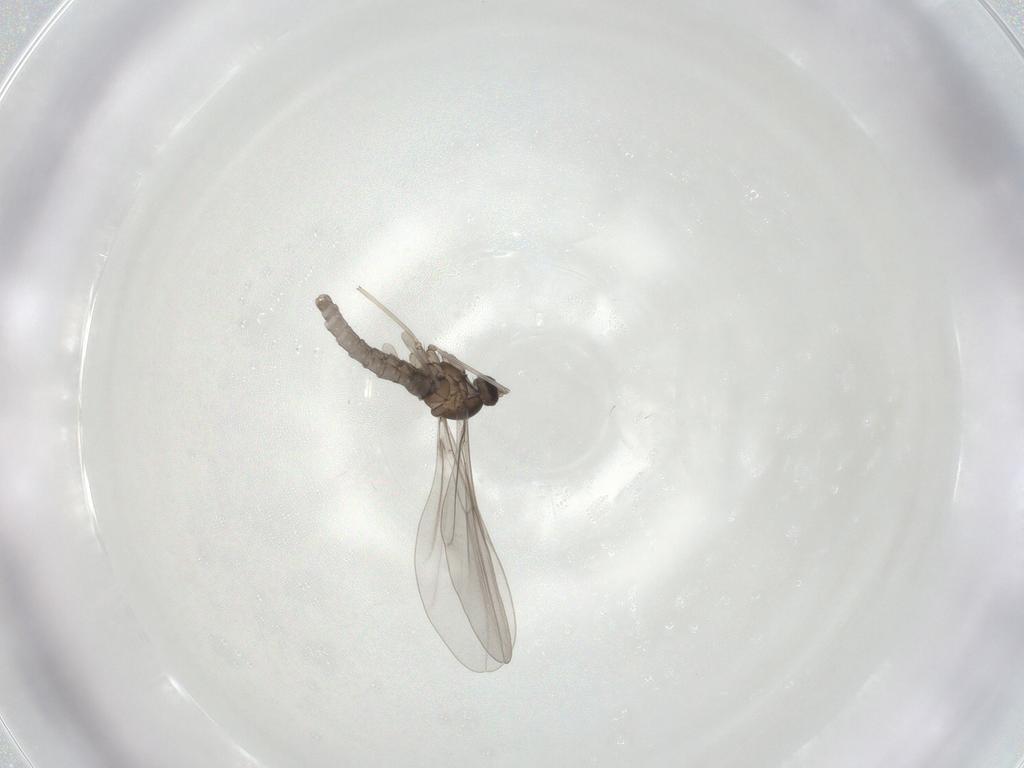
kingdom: Animalia
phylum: Arthropoda
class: Insecta
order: Diptera
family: Cecidomyiidae
